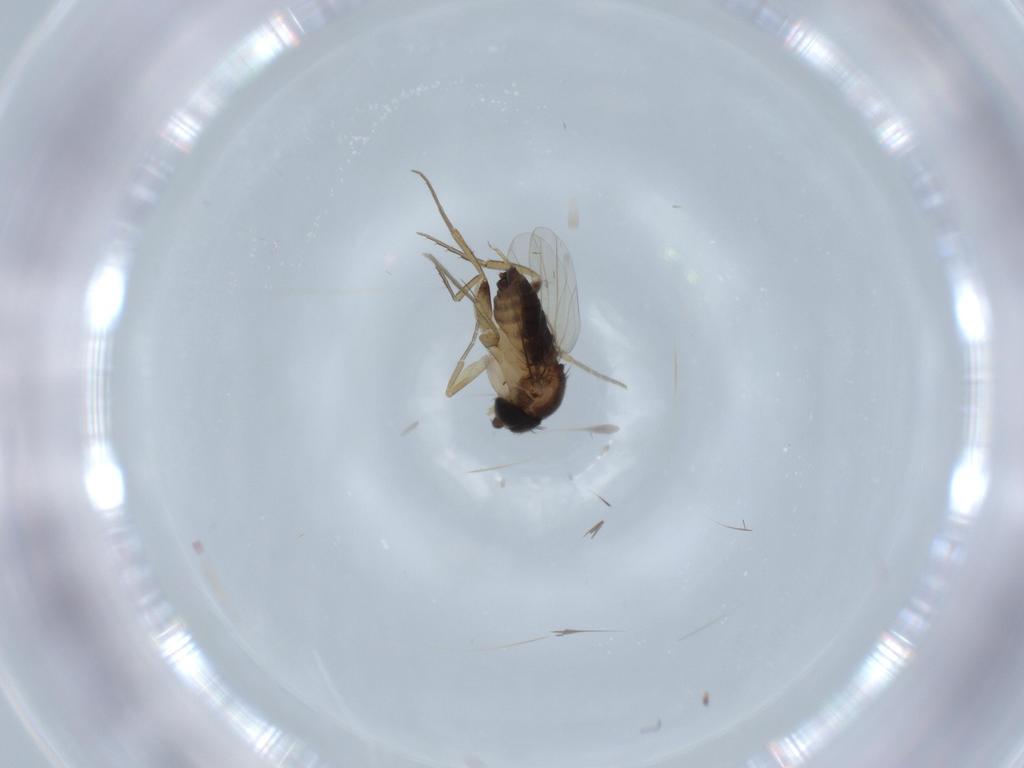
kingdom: Animalia
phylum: Arthropoda
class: Insecta
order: Diptera
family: Phoridae
